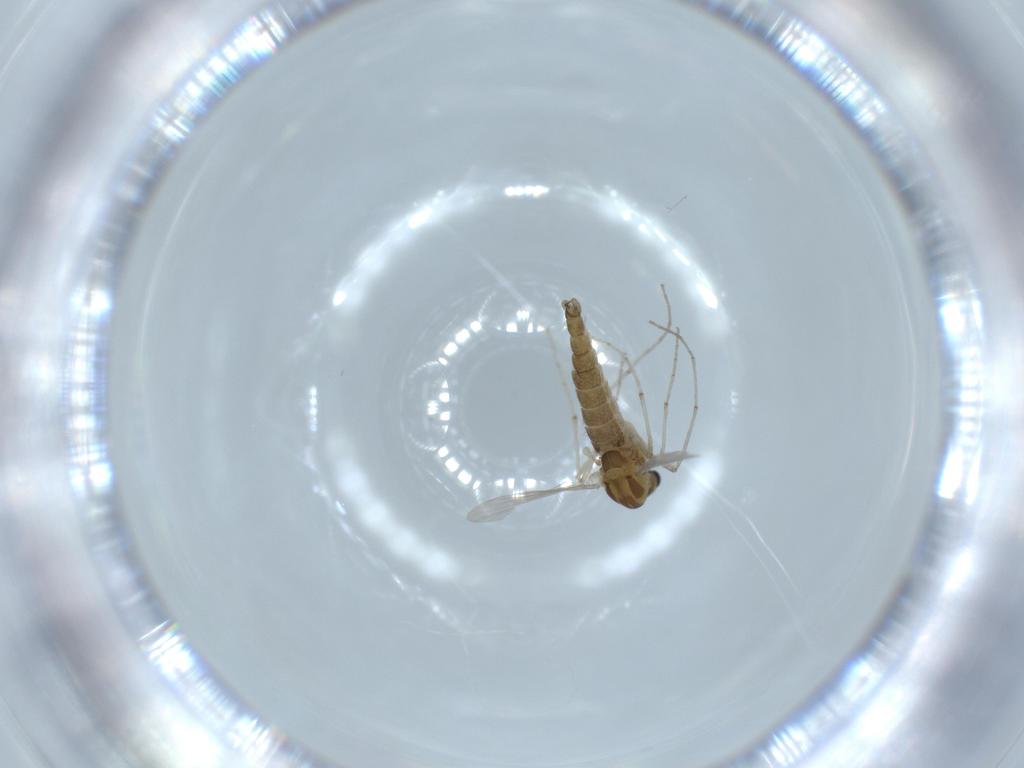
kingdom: Animalia
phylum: Arthropoda
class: Insecta
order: Diptera
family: Chironomidae
